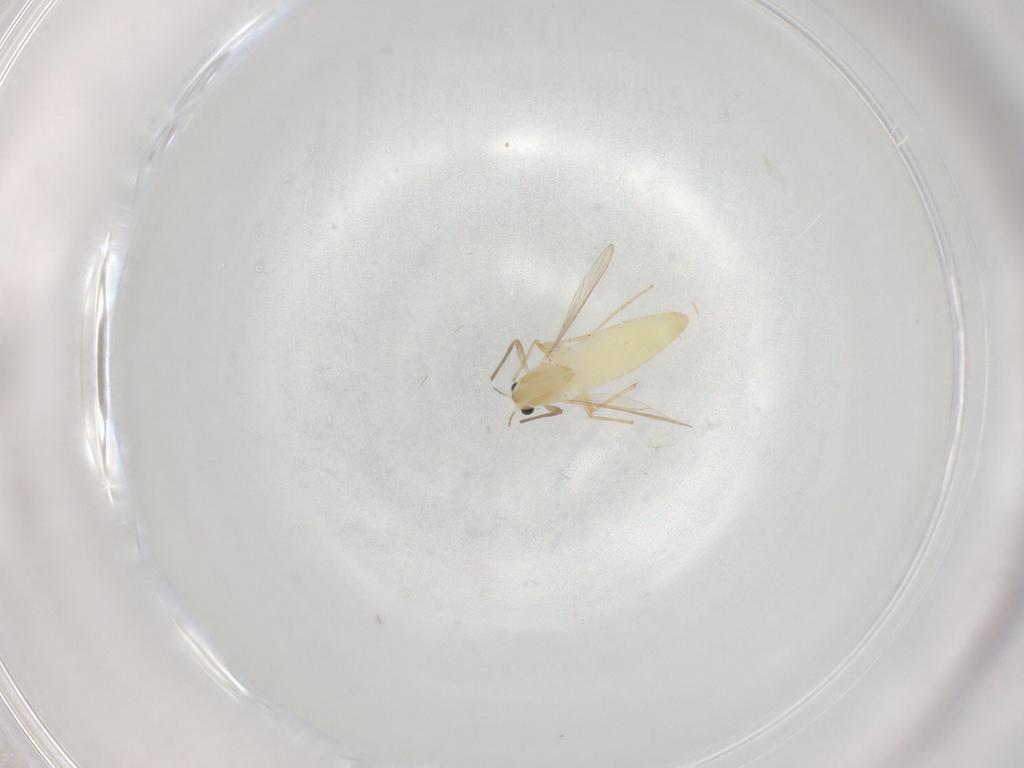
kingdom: Animalia
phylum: Arthropoda
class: Insecta
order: Diptera
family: Chironomidae
